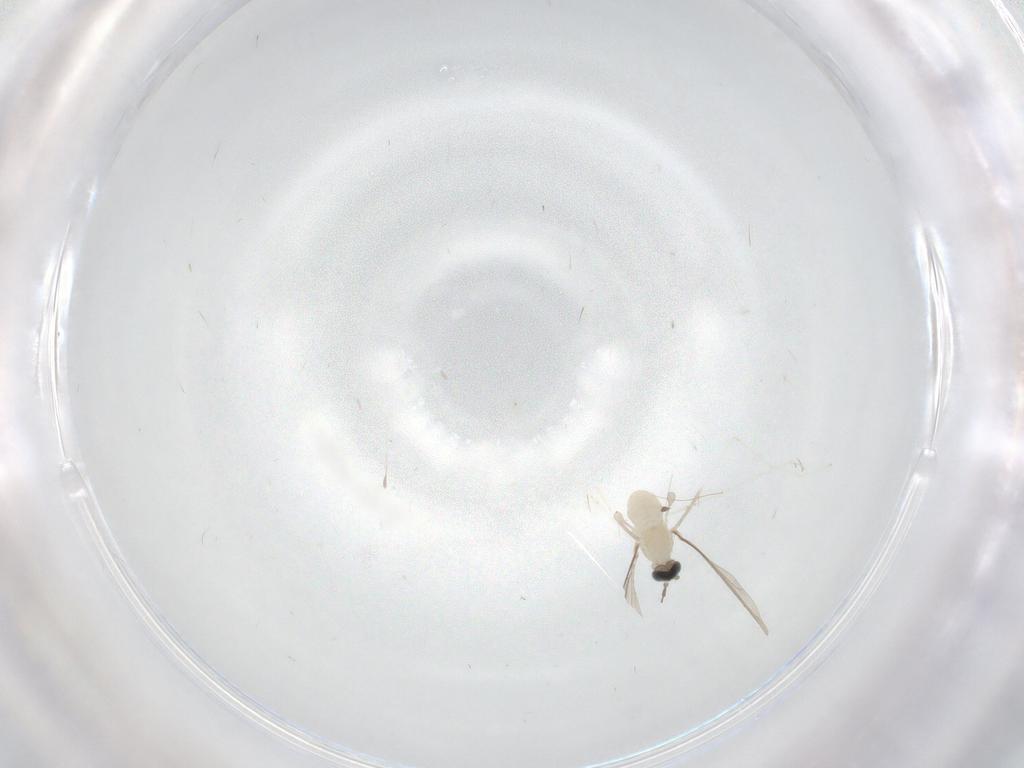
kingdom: Animalia
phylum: Arthropoda
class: Insecta
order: Diptera
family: Cecidomyiidae
